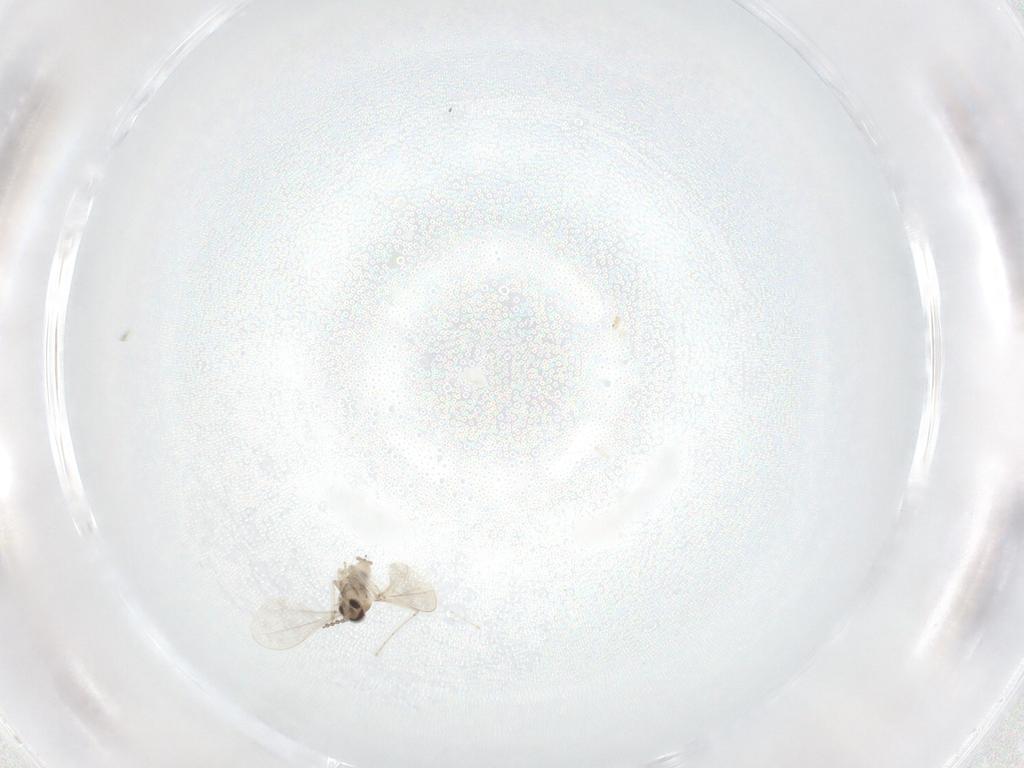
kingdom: Animalia
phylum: Arthropoda
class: Insecta
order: Diptera
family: Cecidomyiidae
